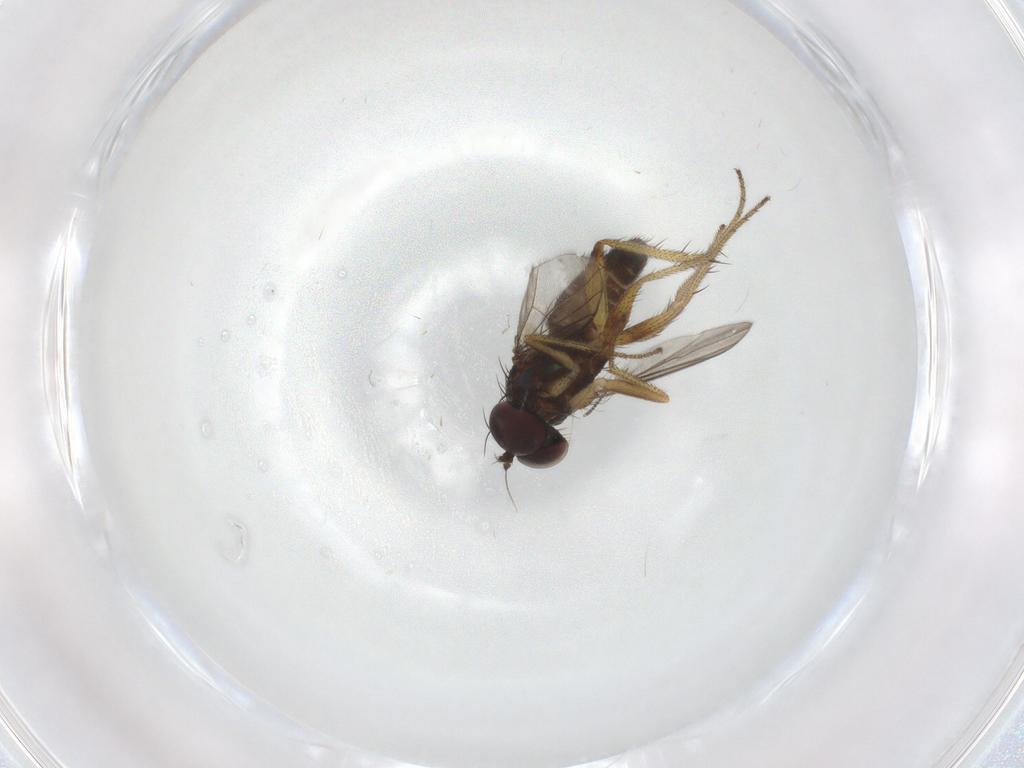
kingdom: Animalia
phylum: Arthropoda
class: Insecta
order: Diptera
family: Chironomidae
